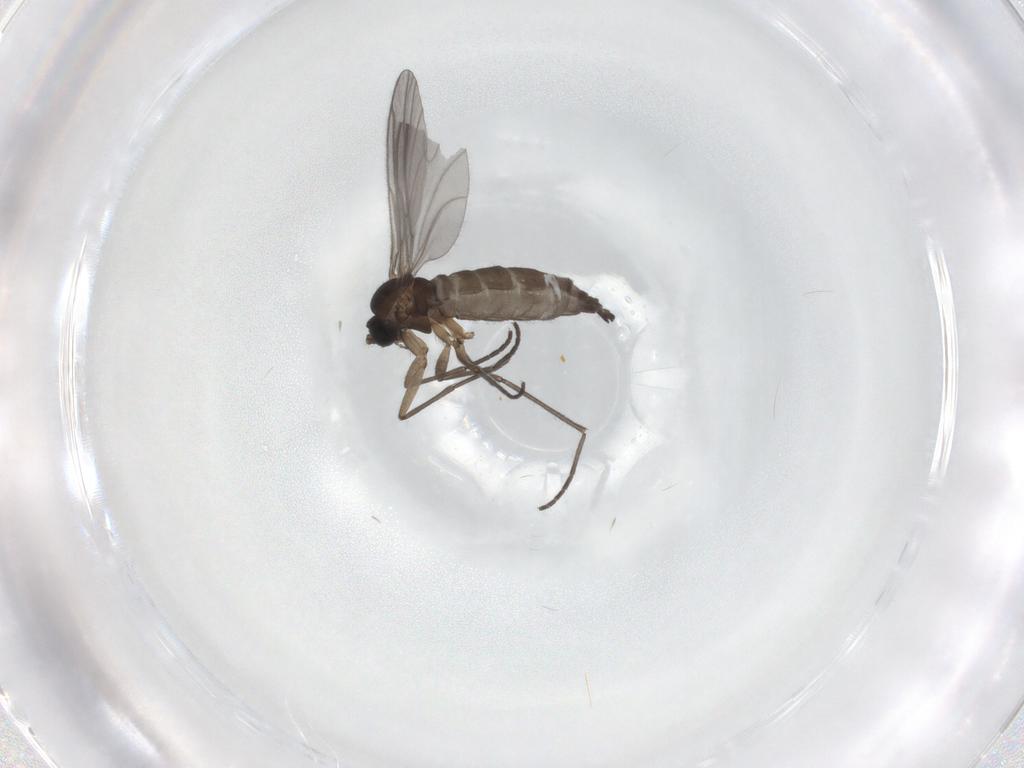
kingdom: Animalia
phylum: Arthropoda
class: Insecta
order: Diptera
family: Sciaridae
